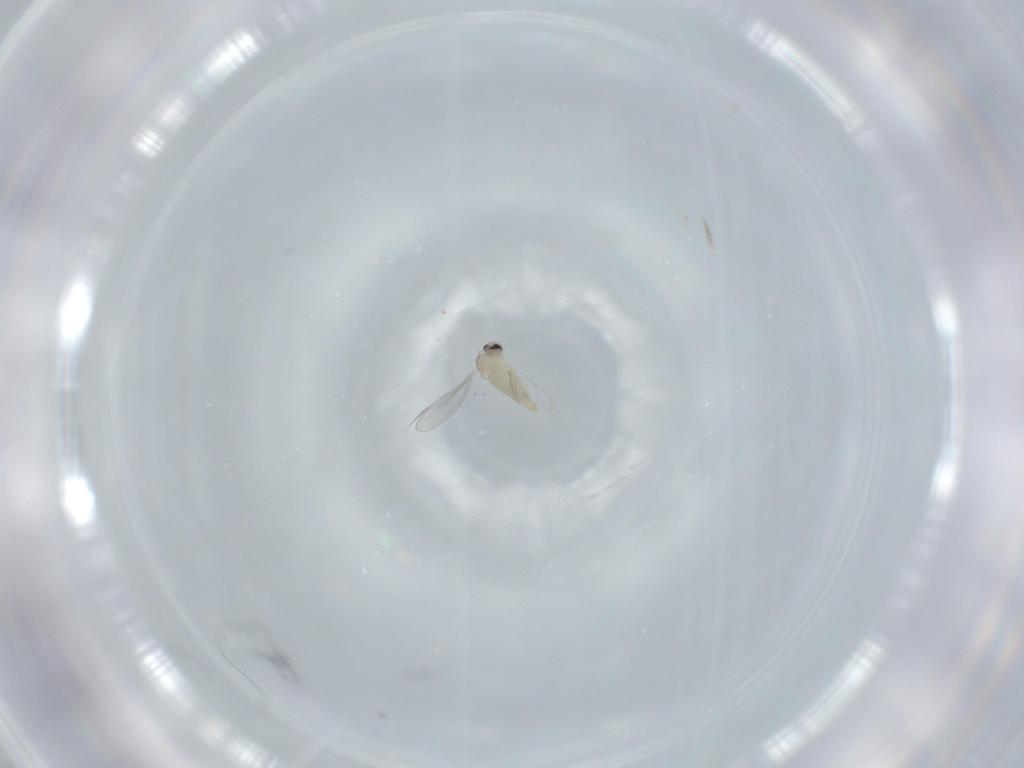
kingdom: Animalia
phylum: Arthropoda
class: Insecta
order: Diptera
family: Cecidomyiidae
